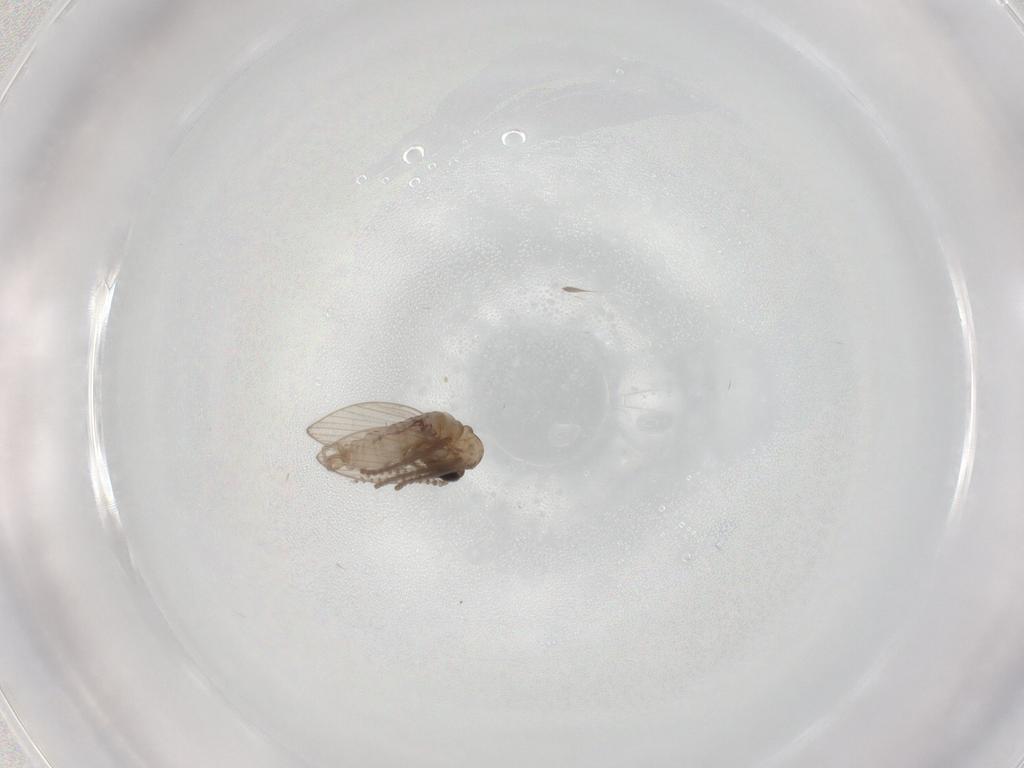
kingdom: Animalia
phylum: Arthropoda
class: Insecta
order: Diptera
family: Psychodidae
